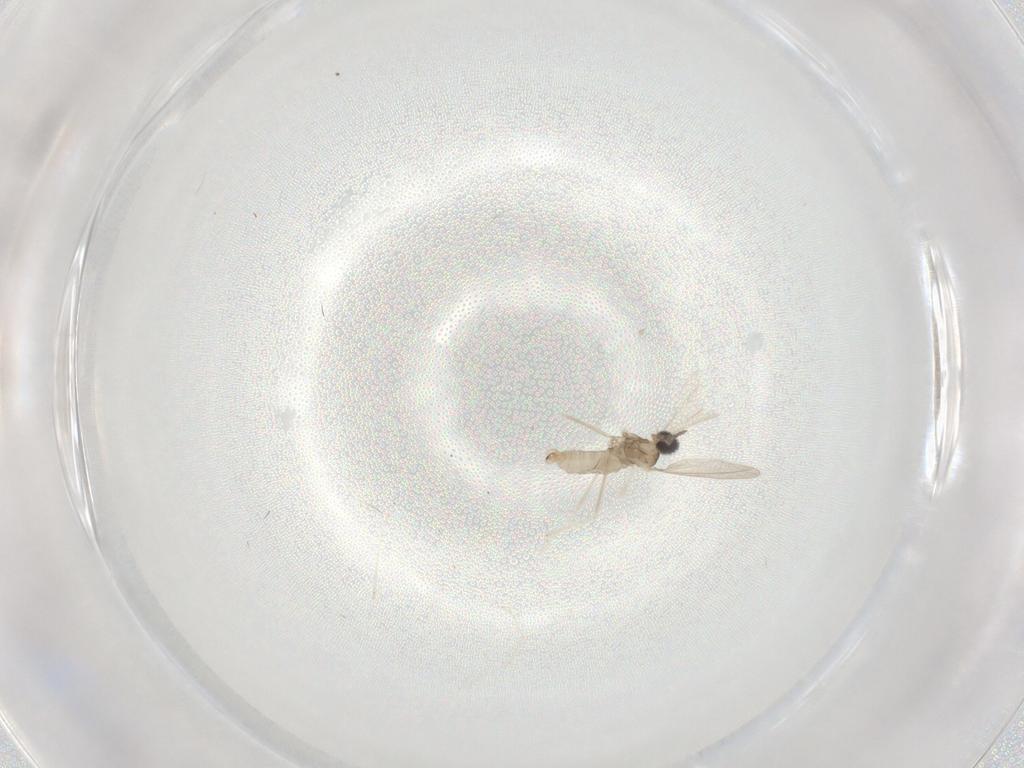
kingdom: Animalia
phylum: Arthropoda
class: Insecta
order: Diptera
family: Cecidomyiidae
